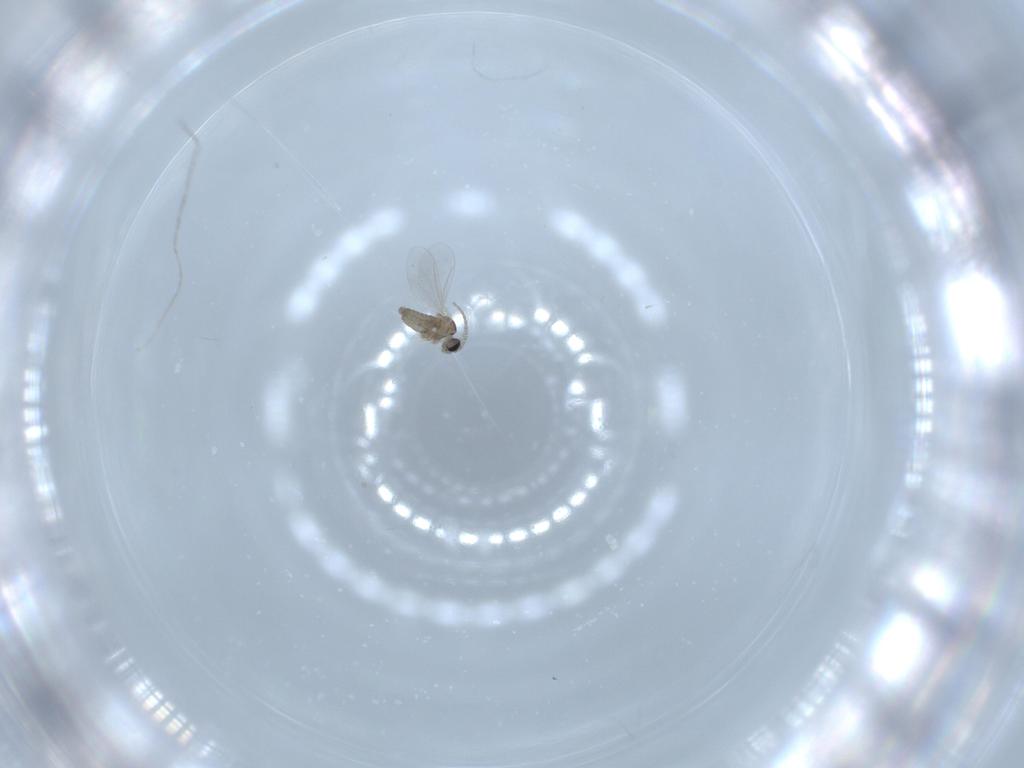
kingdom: Animalia
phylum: Arthropoda
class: Insecta
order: Diptera
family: Cecidomyiidae
